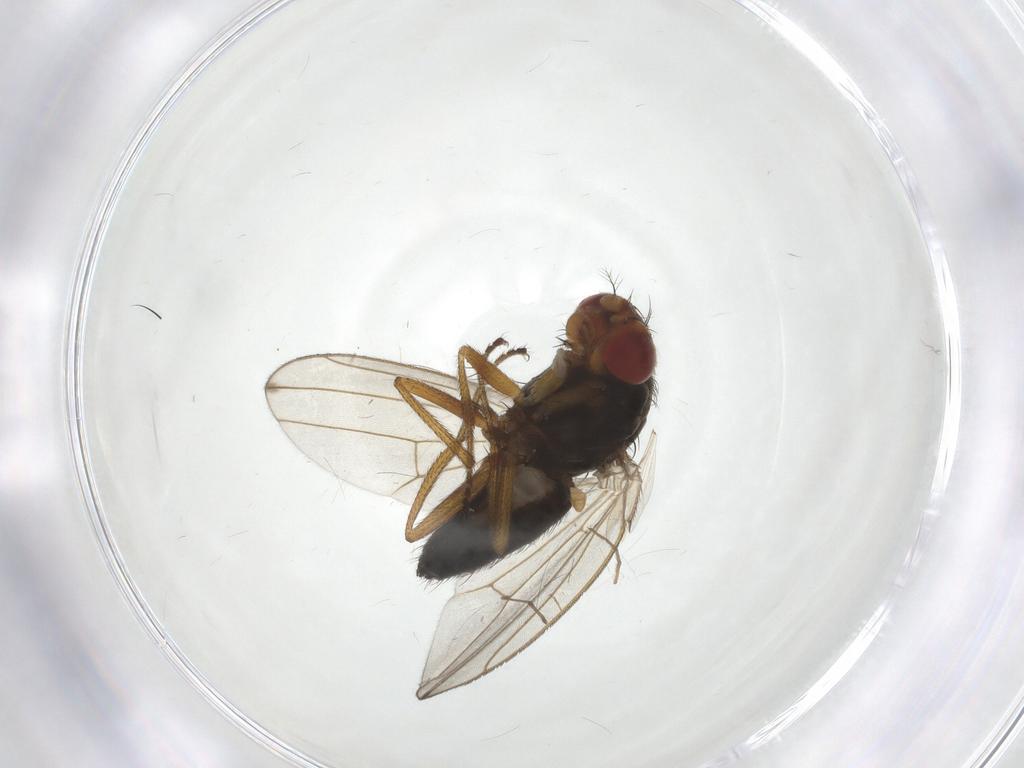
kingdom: Animalia
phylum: Arthropoda
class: Insecta
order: Diptera
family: Drosophilidae
